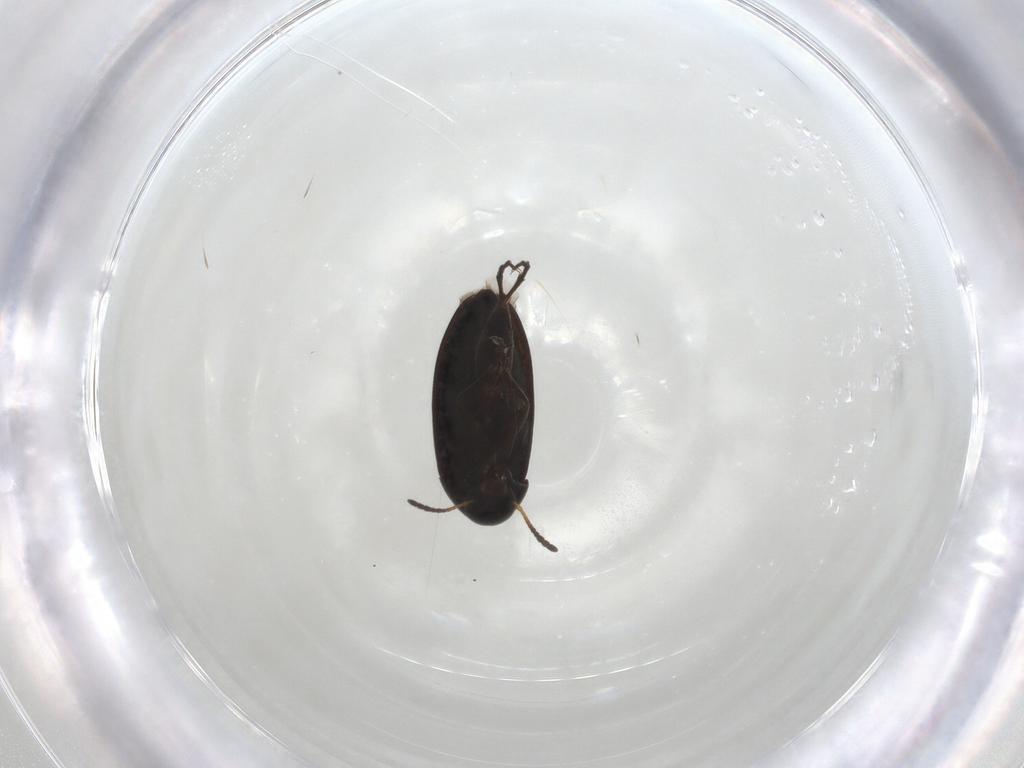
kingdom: Animalia
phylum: Arthropoda
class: Insecta
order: Coleoptera
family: Scraptiidae
